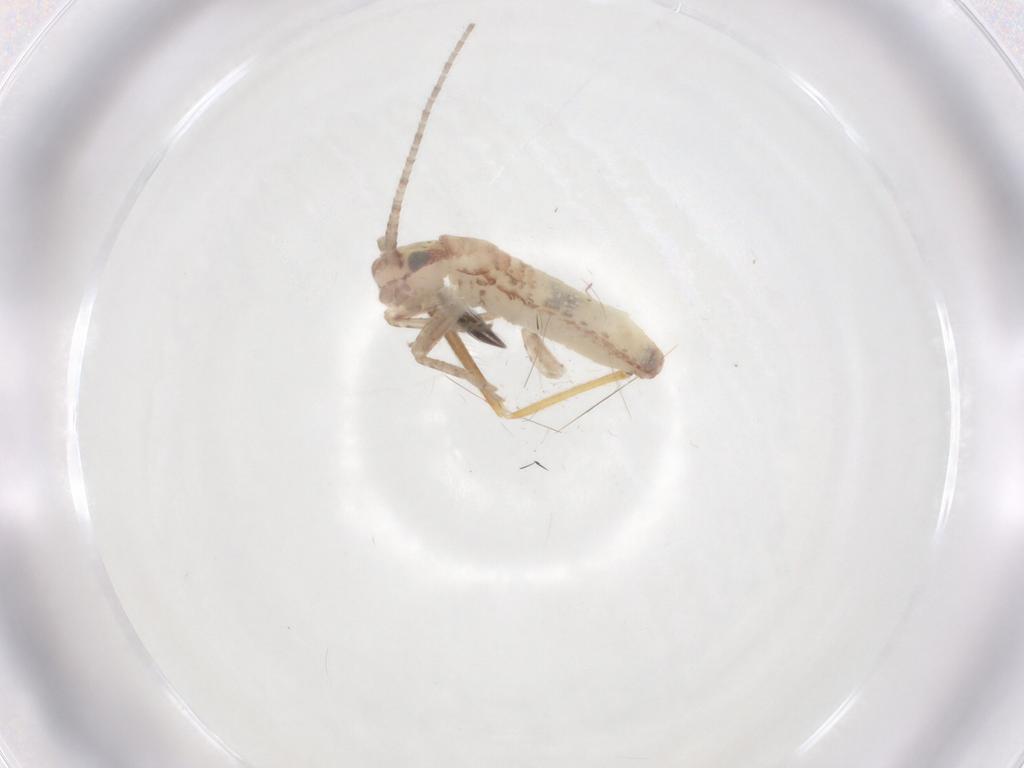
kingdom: Animalia
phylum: Arthropoda
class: Insecta
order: Orthoptera
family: Mogoplistidae
